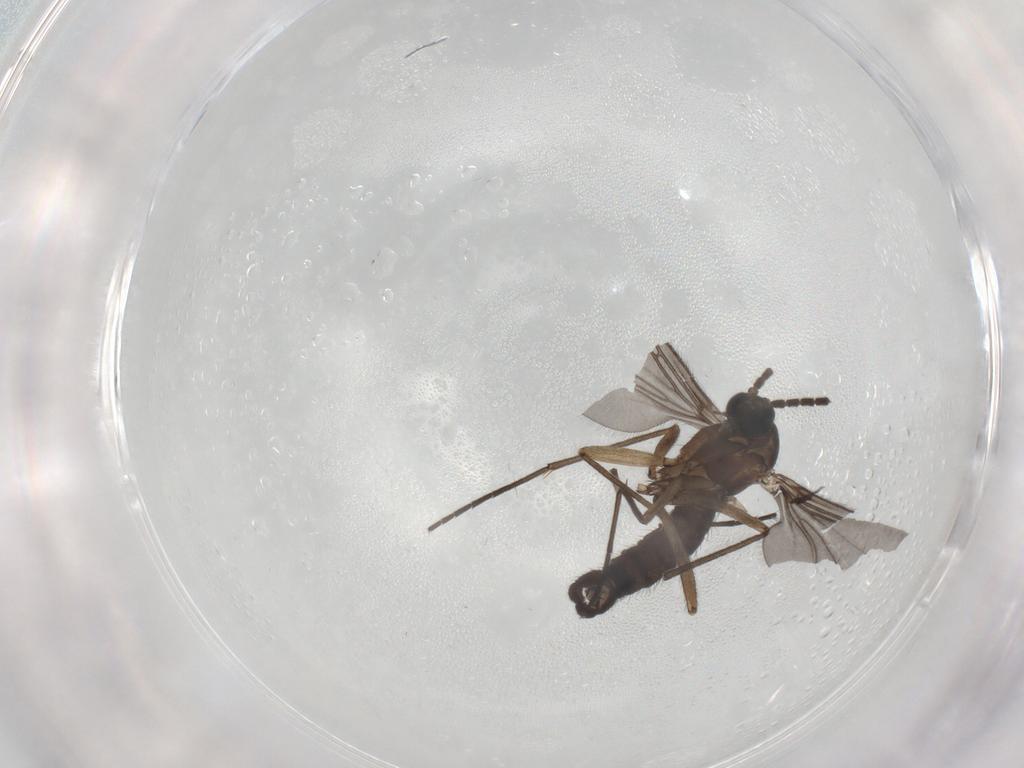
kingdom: Animalia
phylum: Arthropoda
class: Insecta
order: Diptera
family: Sciaridae
